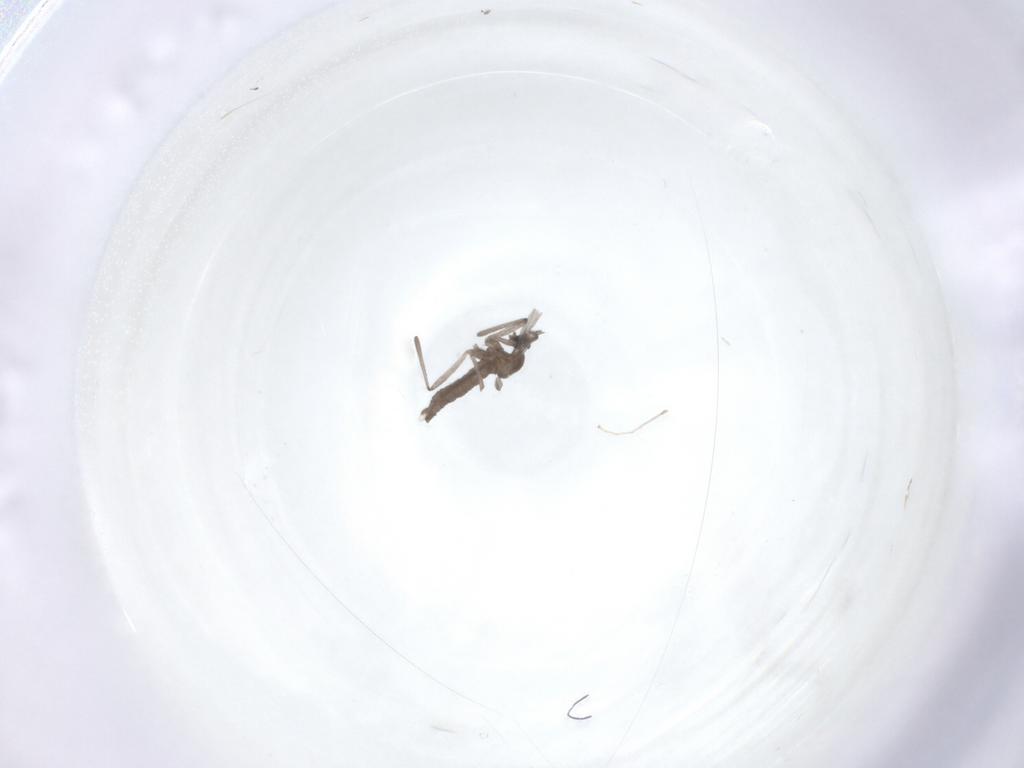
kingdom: Animalia
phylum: Arthropoda
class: Insecta
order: Diptera
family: Cecidomyiidae
